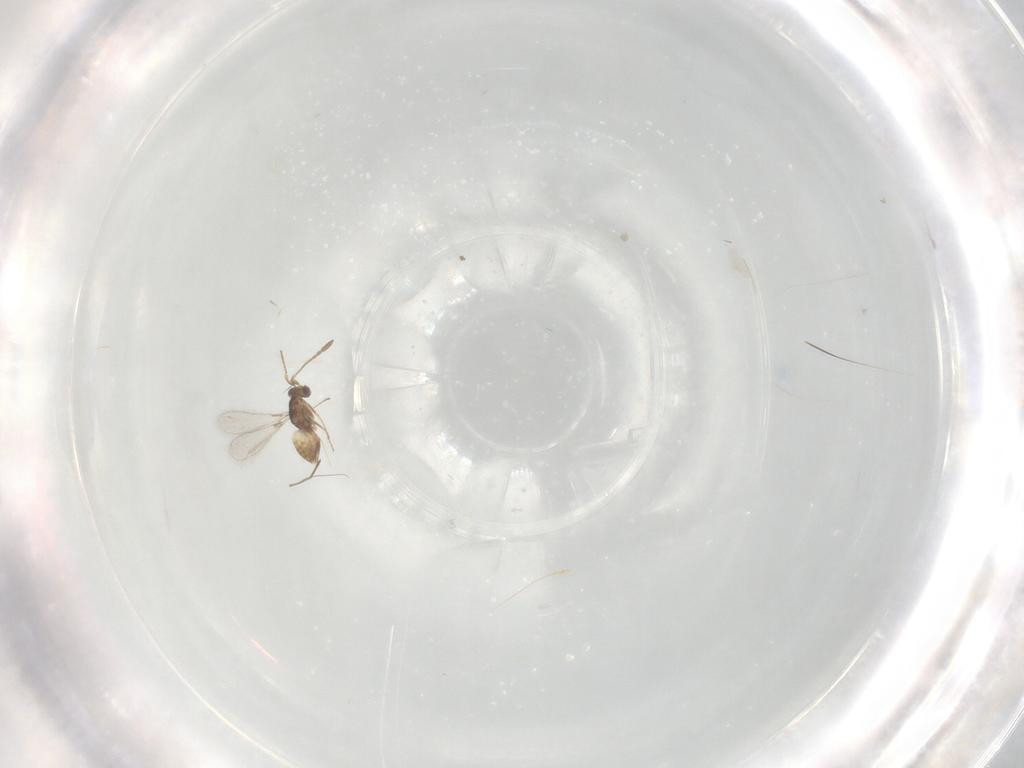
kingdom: Animalia
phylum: Arthropoda
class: Insecta
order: Hymenoptera
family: Mymaridae
